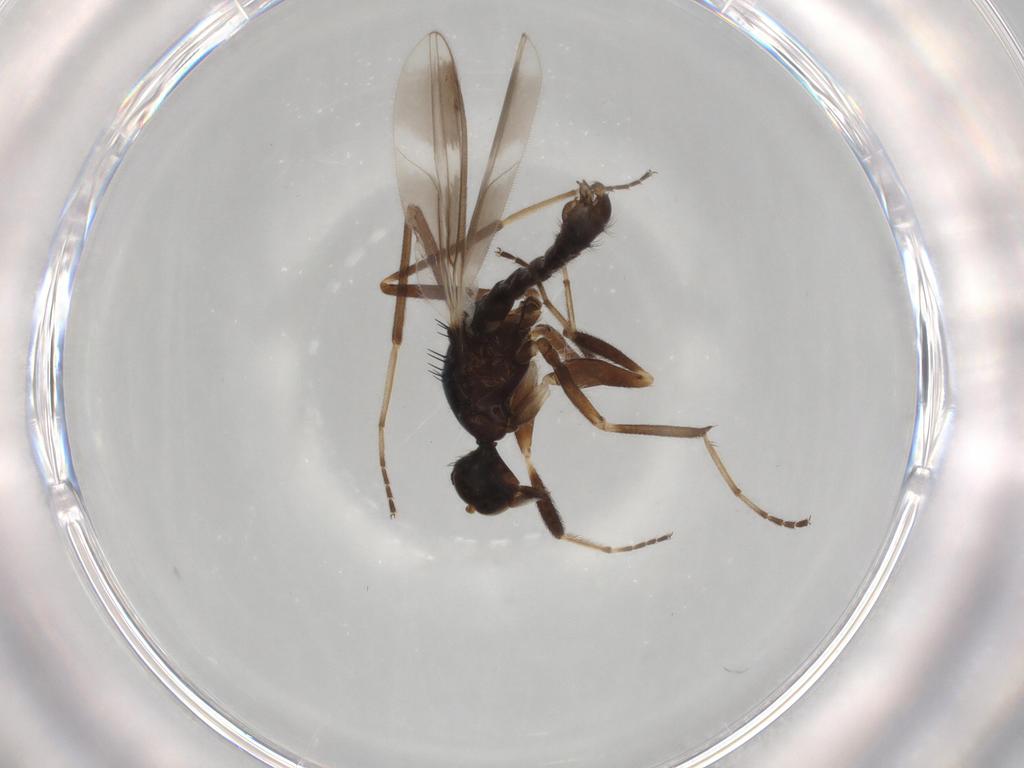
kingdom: Animalia
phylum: Arthropoda
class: Insecta
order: Diptera
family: Hybotidae
